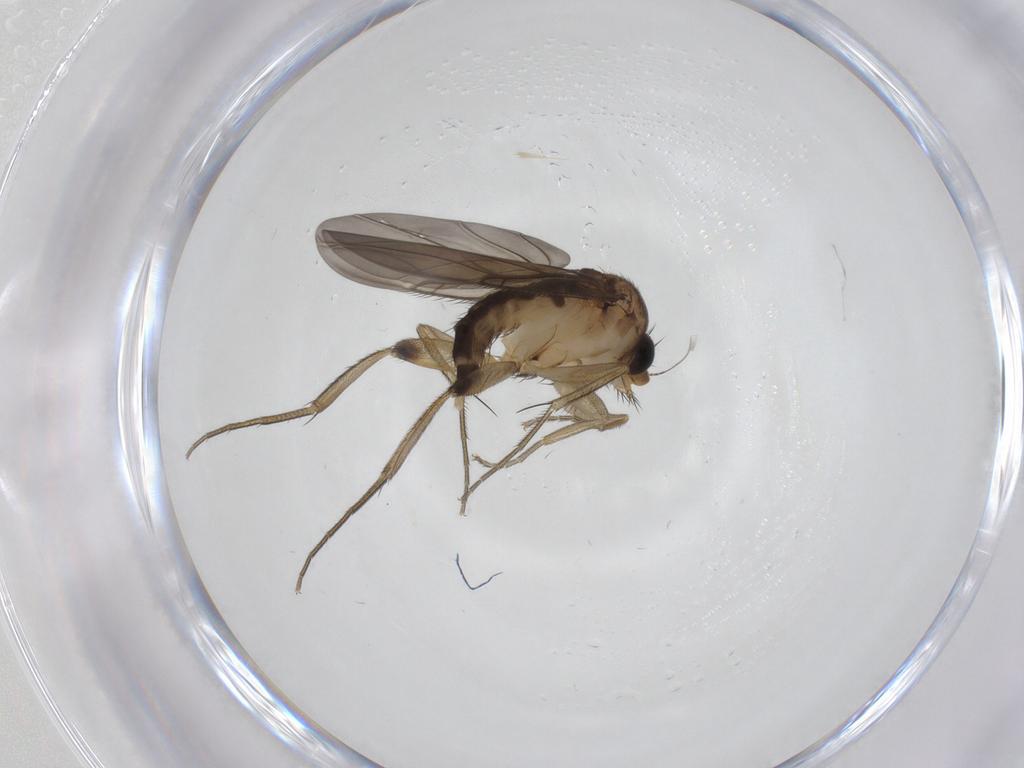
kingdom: Animalia
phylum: Arthropoda
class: Insecta
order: Diptera
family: Phoridae
